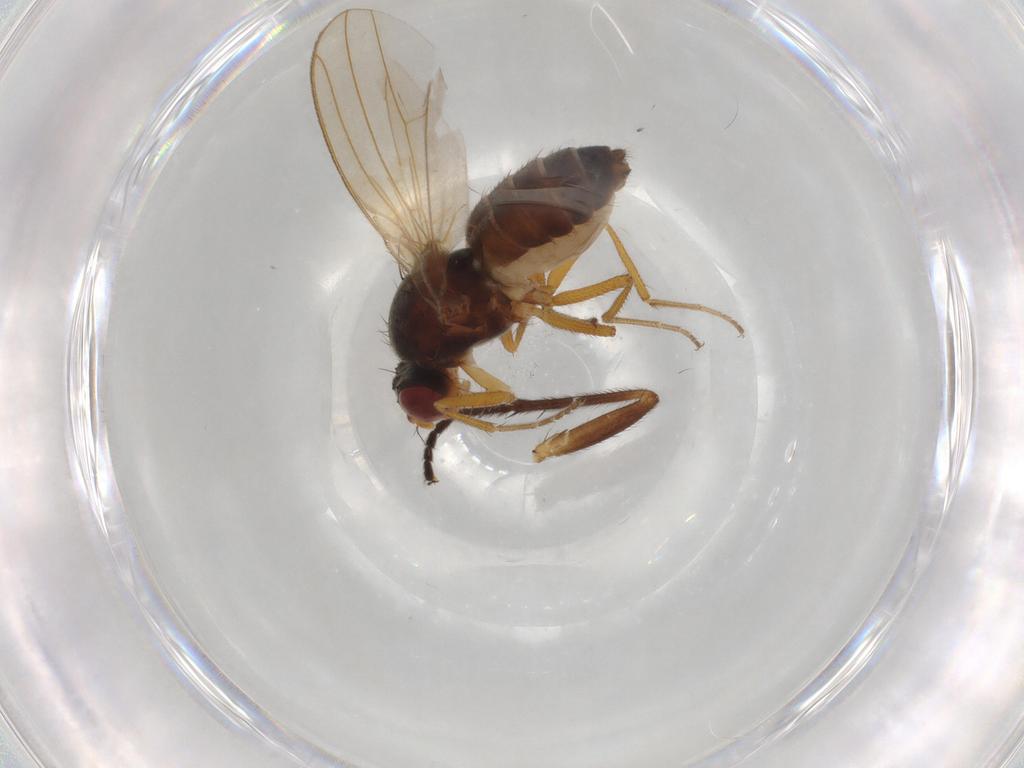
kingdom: Animalia
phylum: Arthropoda
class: Insecta
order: Diptera
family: Drosophilidae
